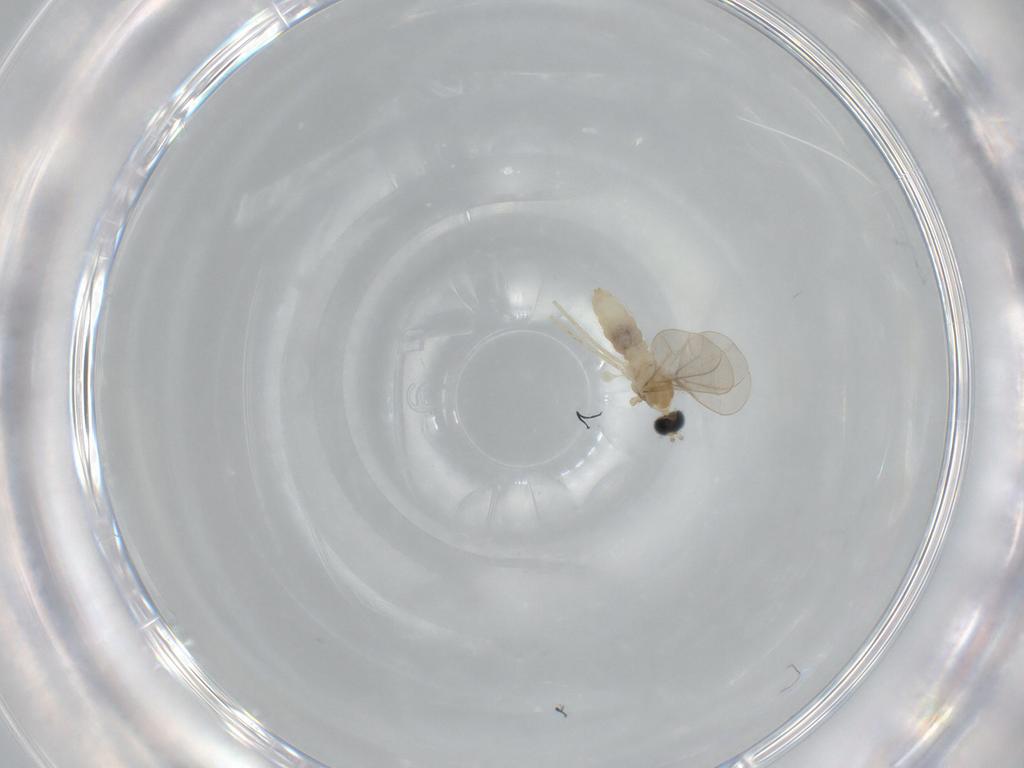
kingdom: Animalia
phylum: Arthropoda
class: Insecta
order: Diptera
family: Cecidomyiidae
